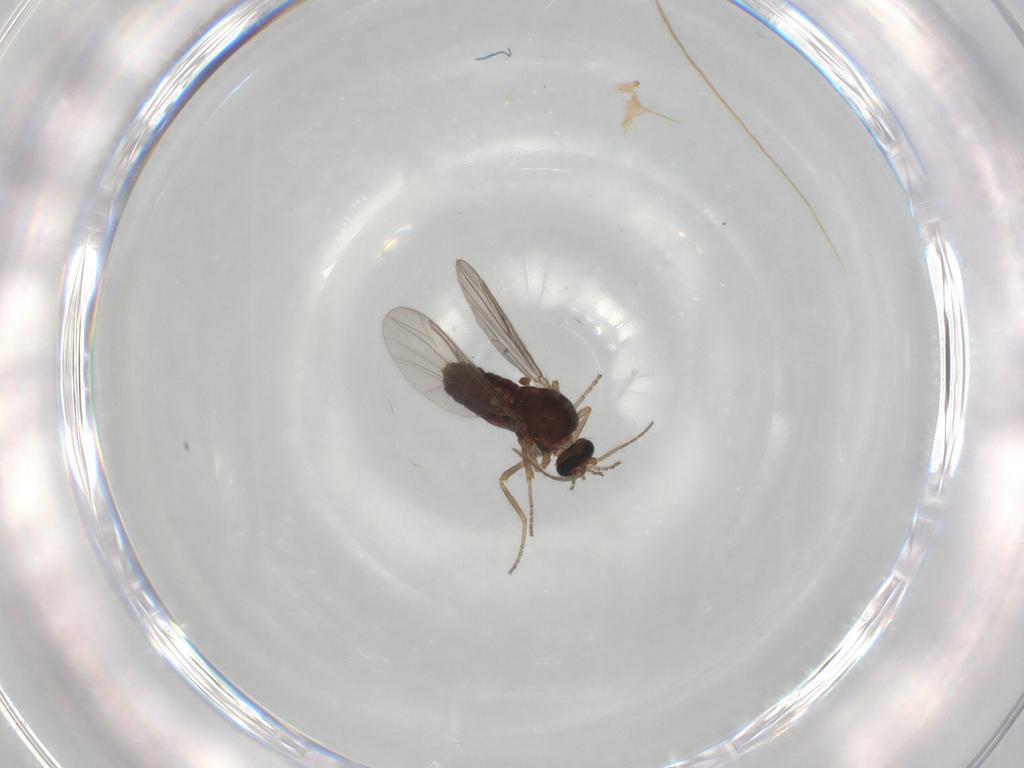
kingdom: Animalia
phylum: Arthropoda
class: Insecta
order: Diptera
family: Ceratopogonidae
